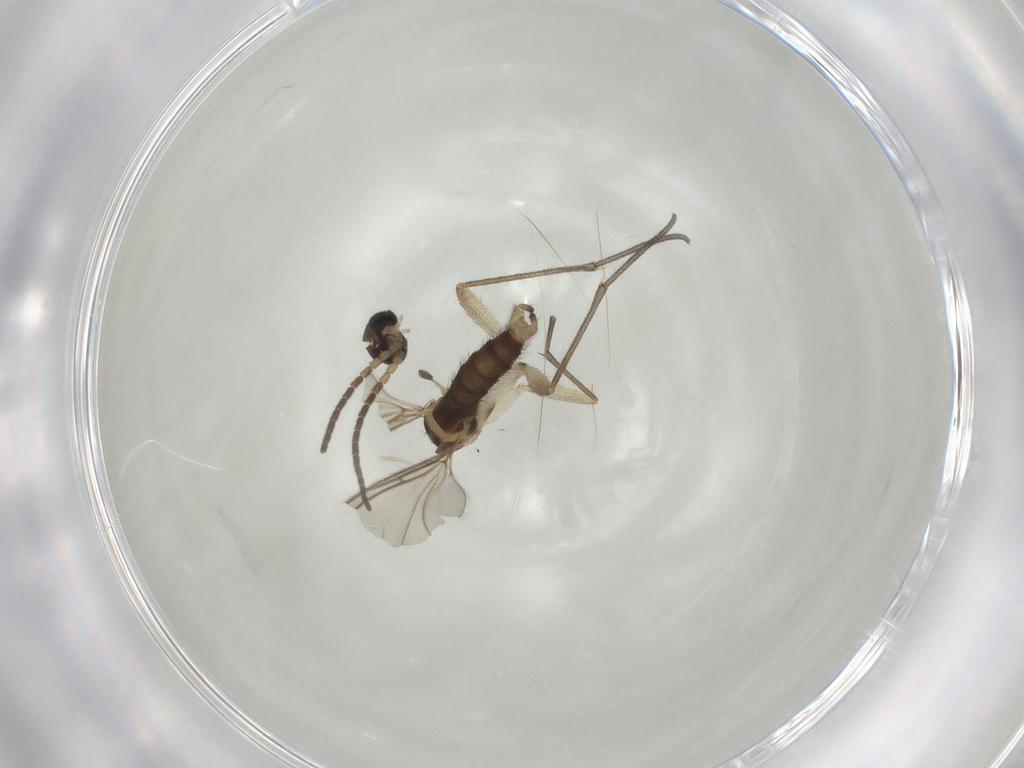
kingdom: Animalia
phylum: Arthropoda
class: Insecta
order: Diptera
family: Sciaridae
